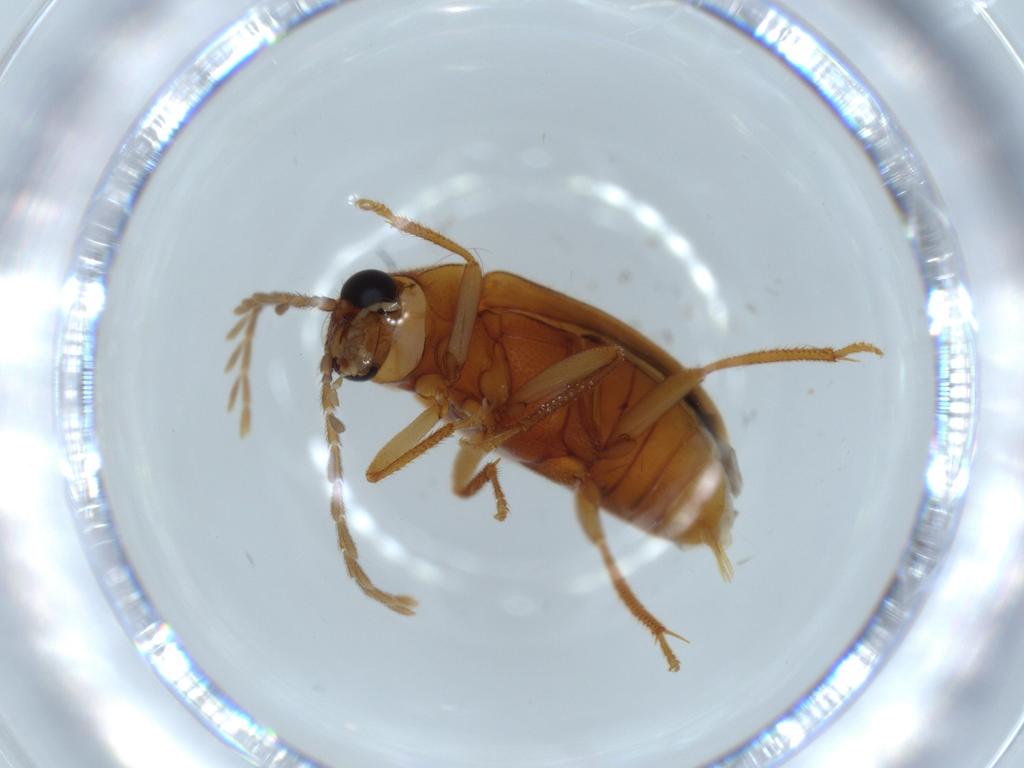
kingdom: Animalia
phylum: Arthropoda
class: Insecta
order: Coleoptera
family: Ptilodactylidae
